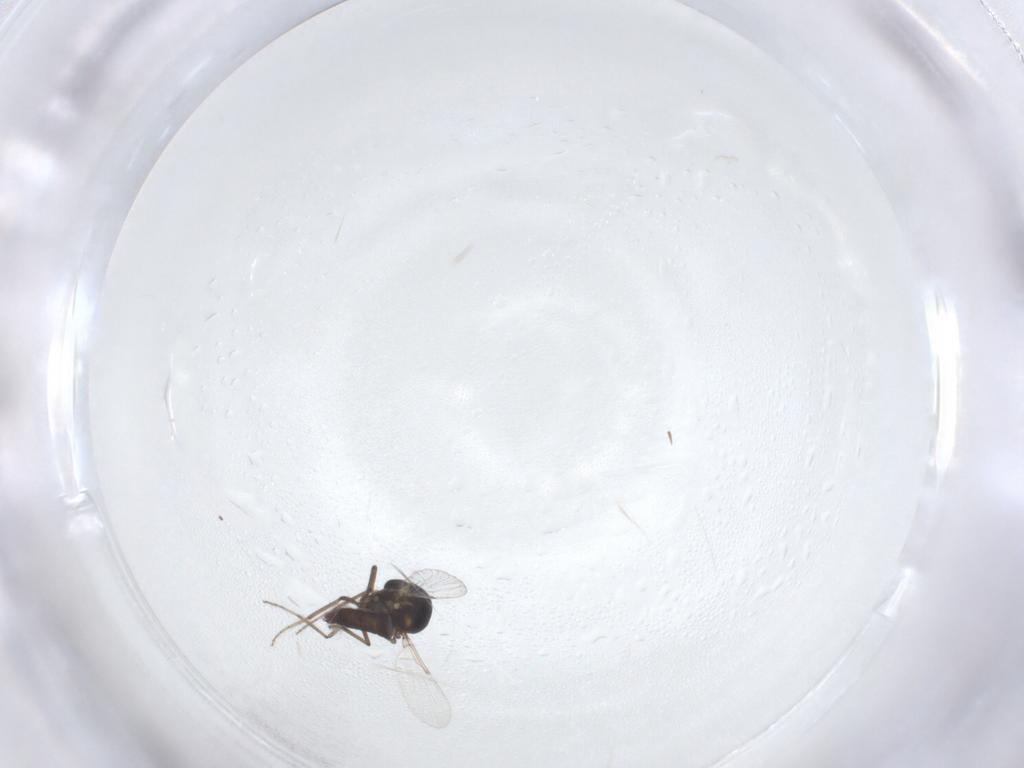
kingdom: Animalia
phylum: Arthropoda
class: Insecta
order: Diptera
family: Ceratopogonidae
